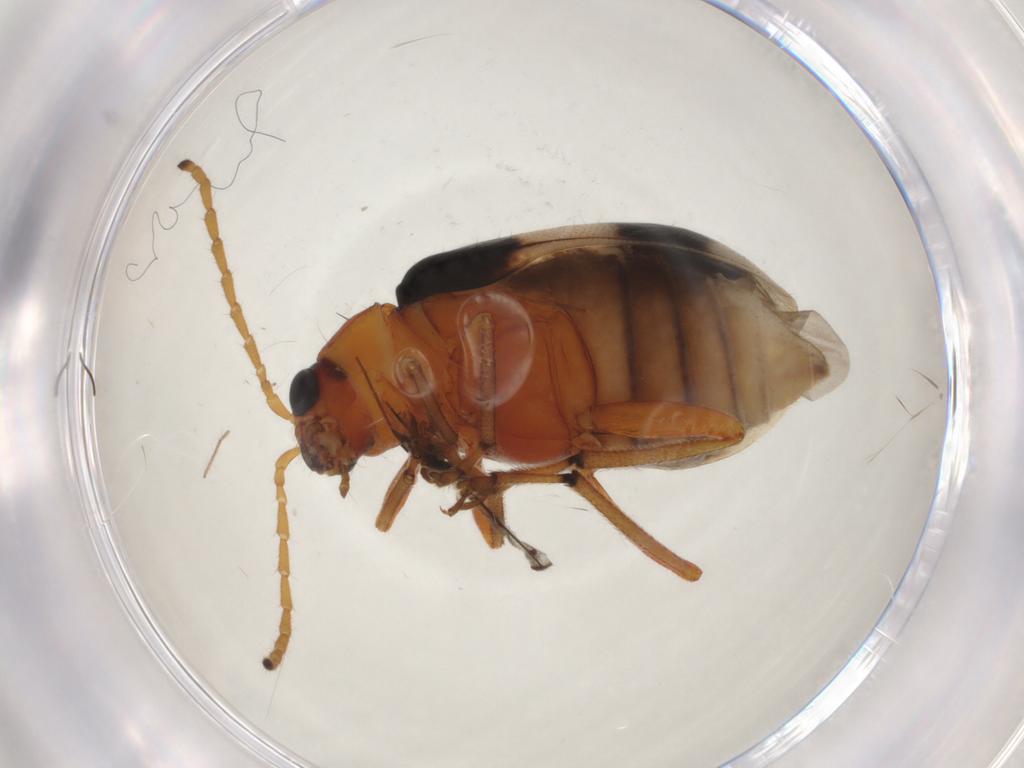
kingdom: Animalia
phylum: Arthropoda
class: Insecta
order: Coleoptera
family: Chrysomelidae
